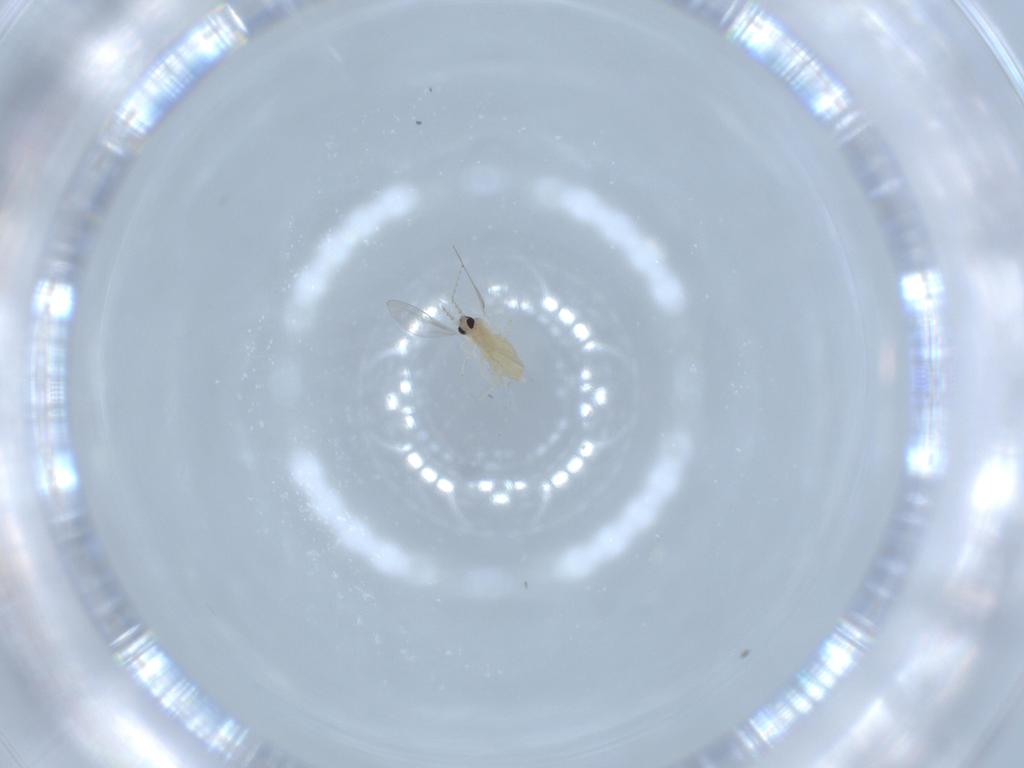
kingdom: Animalia
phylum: Arthropoda
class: Insecta
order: Diptera
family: Cecidomyiidae
